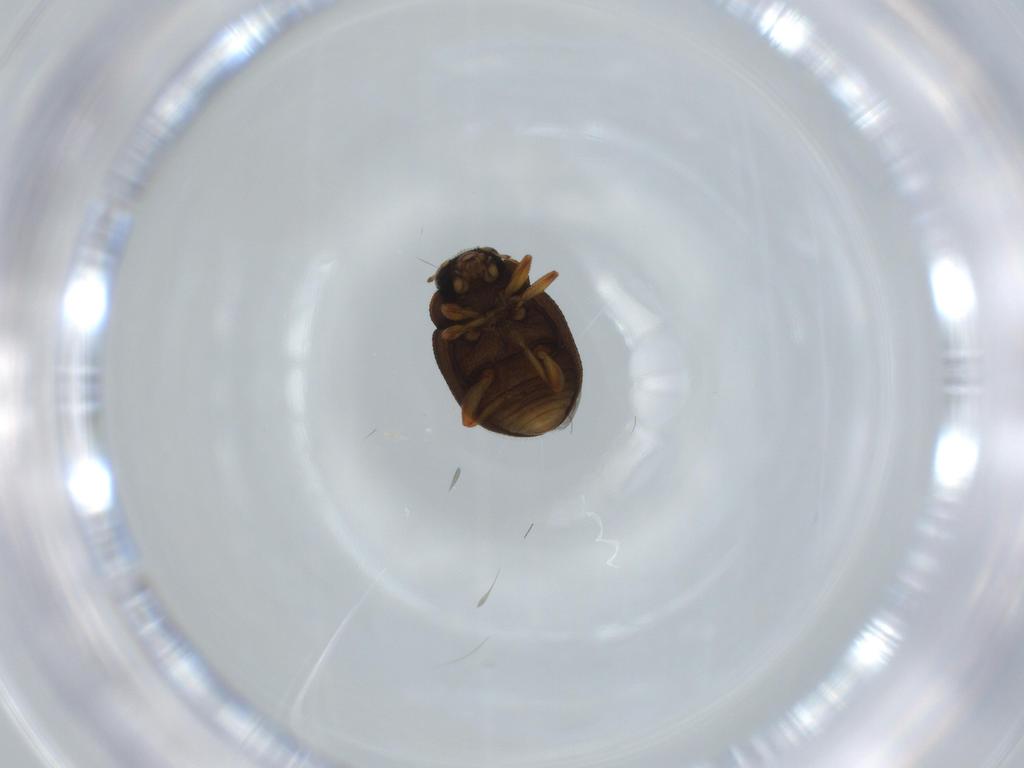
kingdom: Animalia
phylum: Arthropoda
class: Insecta
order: Coleoptera
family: Coccinellidae
